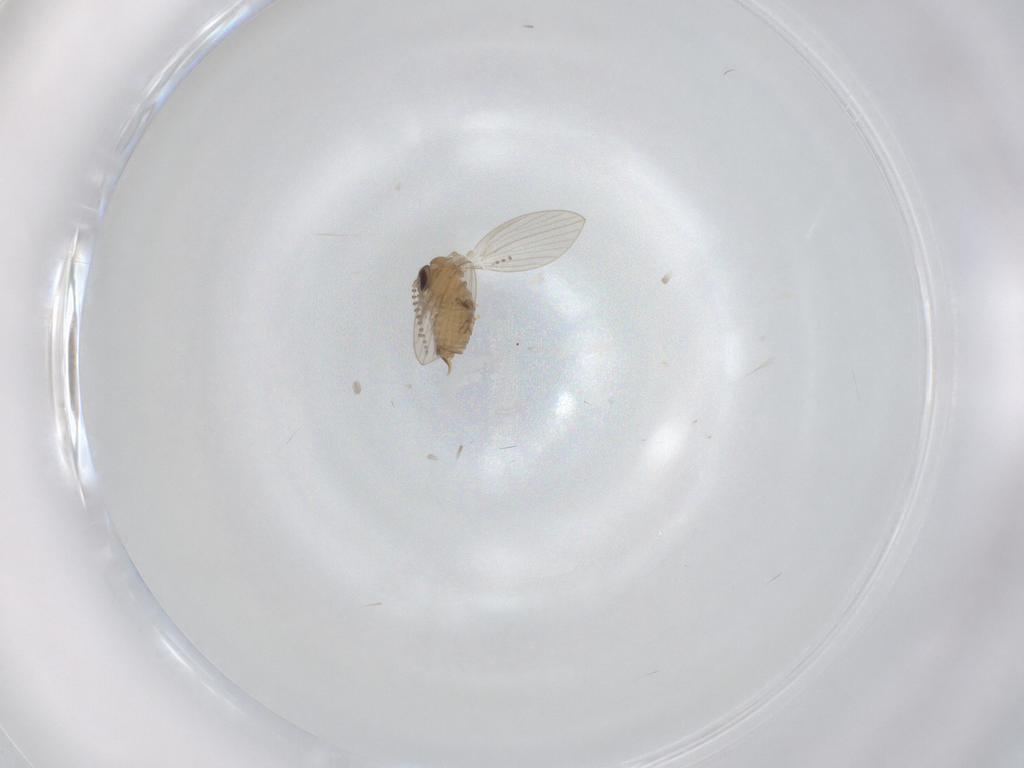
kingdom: Animalia
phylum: Arthropoda
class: Insecta
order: Diptera
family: Psychodidae
